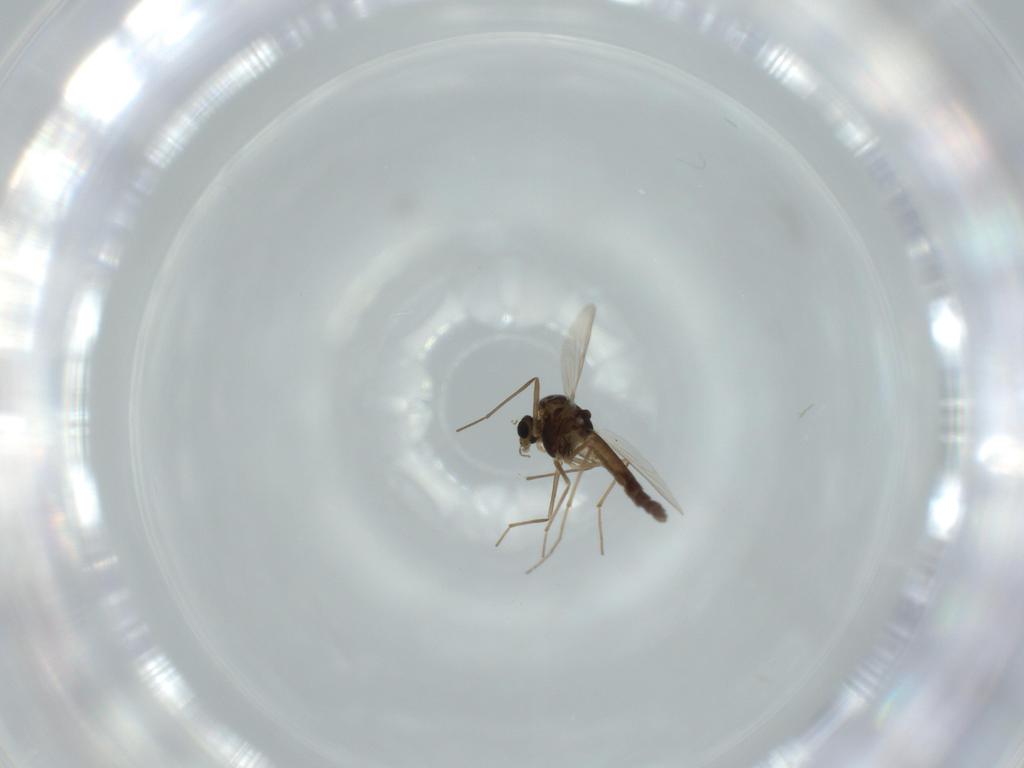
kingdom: Animalia
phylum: Arthropoda
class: Insecta
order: Diptera
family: Chironomidae
